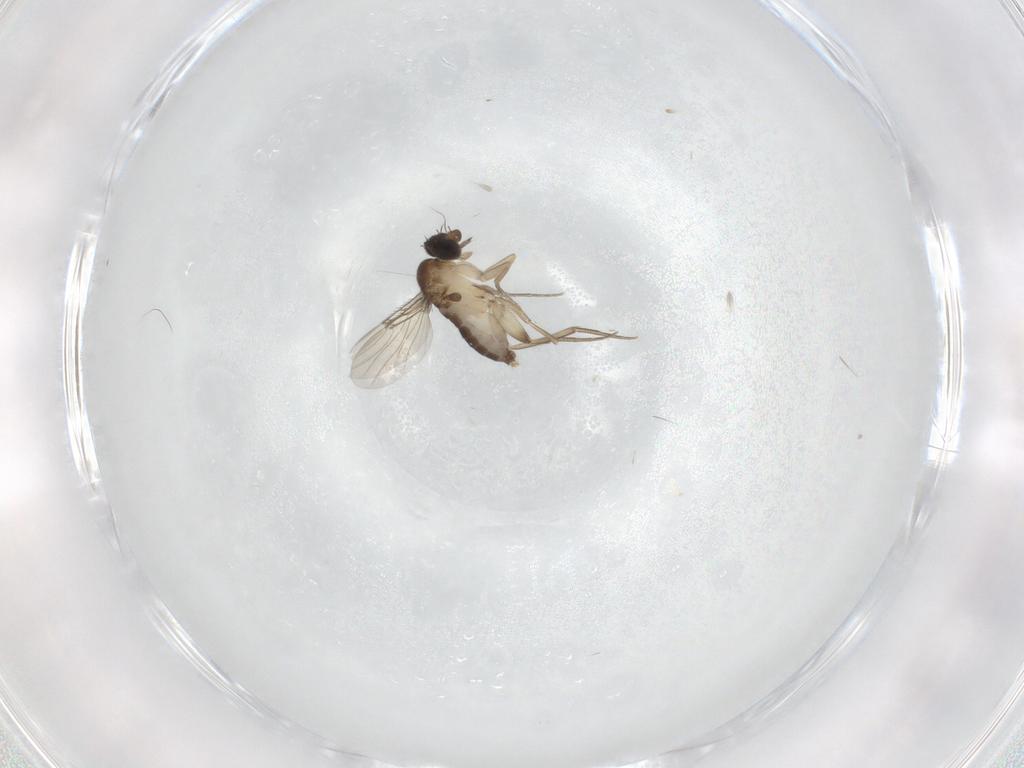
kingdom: Animalia
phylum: Arthropoda
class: Insecta
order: Diptera
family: Phoridae
